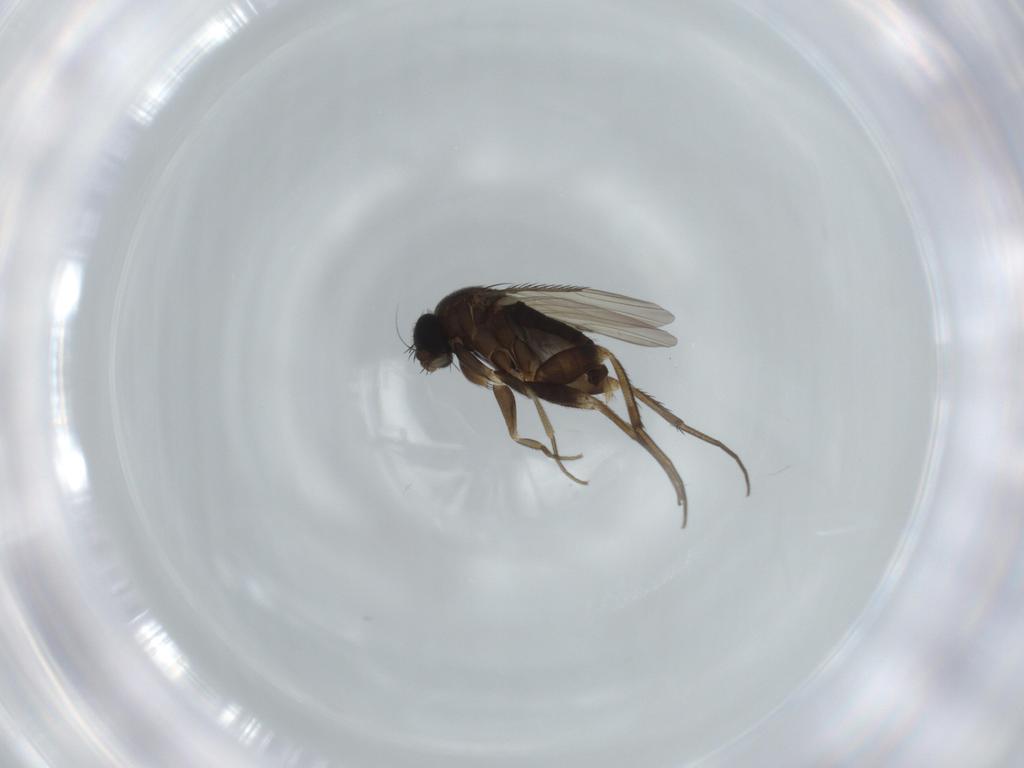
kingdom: Animalia
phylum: Arthropoda
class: Insecta
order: Diptera
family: Phoridae
